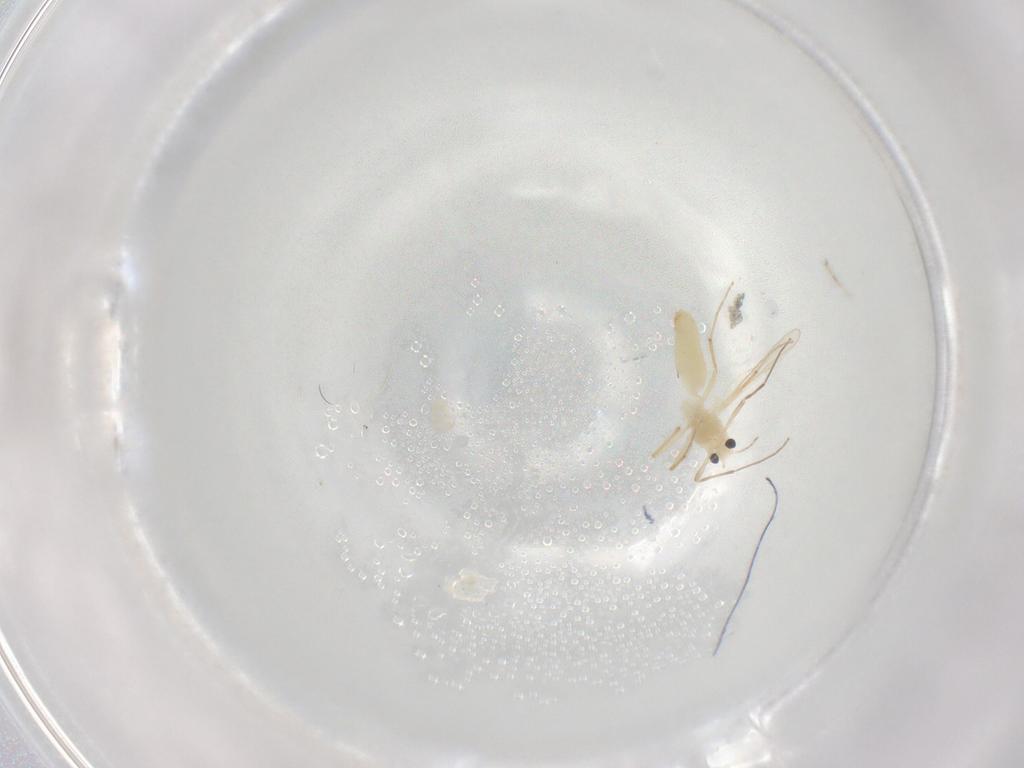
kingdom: Animalia
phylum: Arthropoda
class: Insecta
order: Diptera
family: Chironomidae
